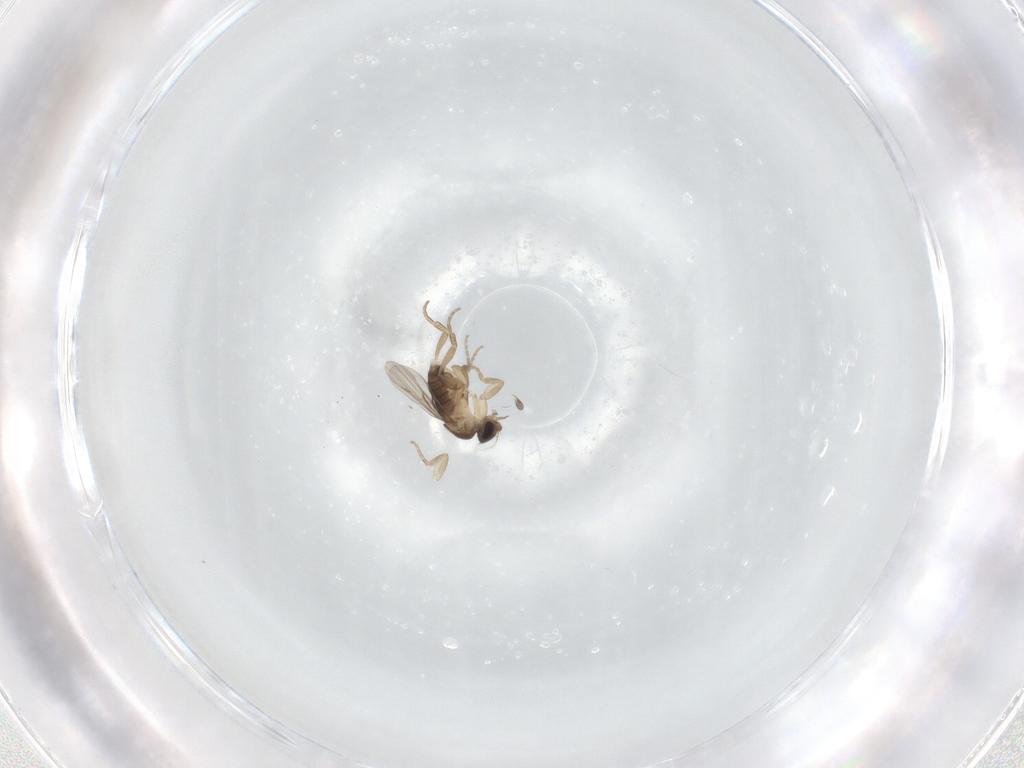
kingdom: Animalia
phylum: Arthropoda
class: Insecta
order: Diptera
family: Phoridae
